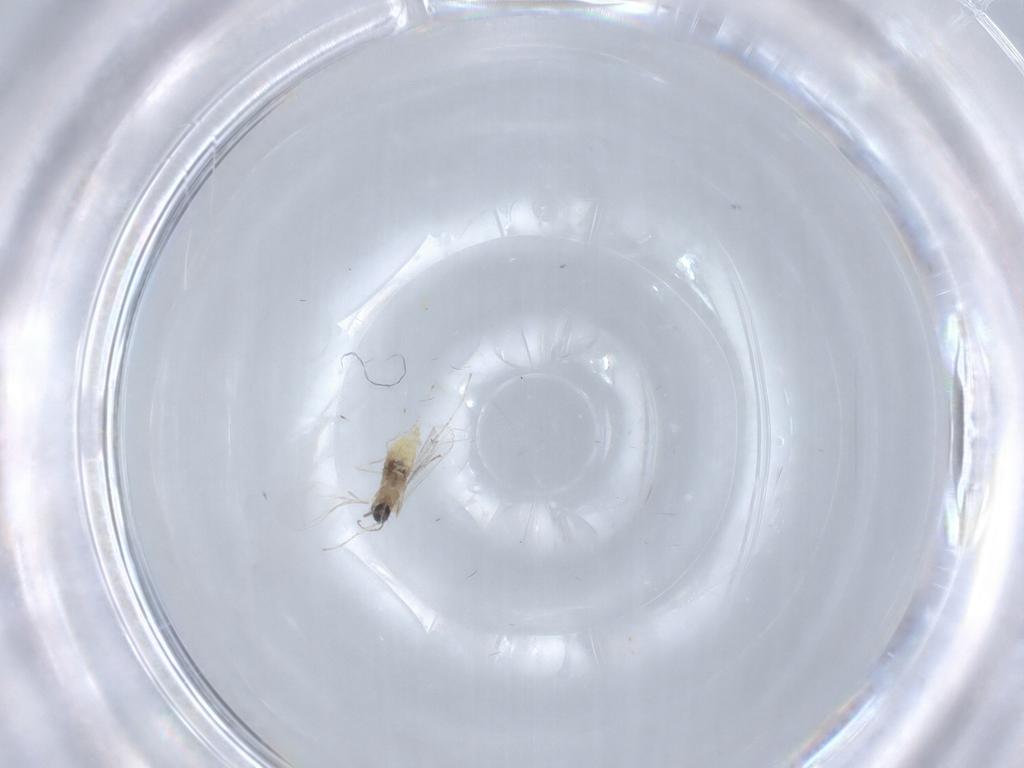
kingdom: Animalia
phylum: Arthropoda
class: Insecta
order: Diptera
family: Cecidomyiidae
